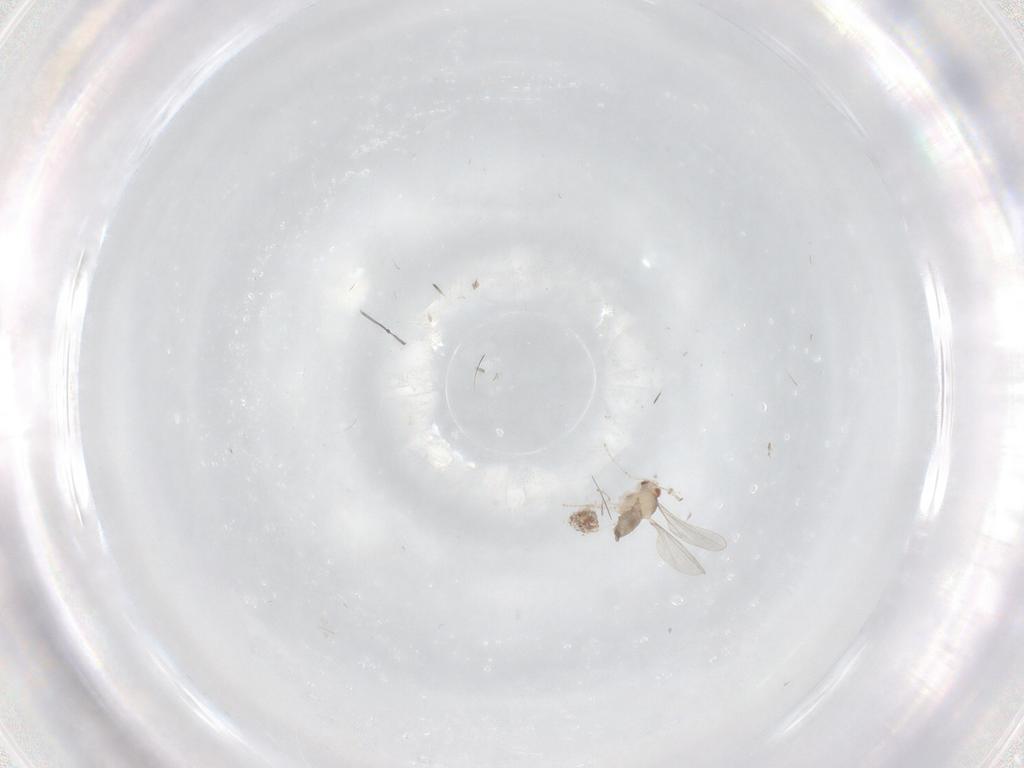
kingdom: Animalia
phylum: Arthropoda
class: Insecta
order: Diptera
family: Cecidomyiidae
